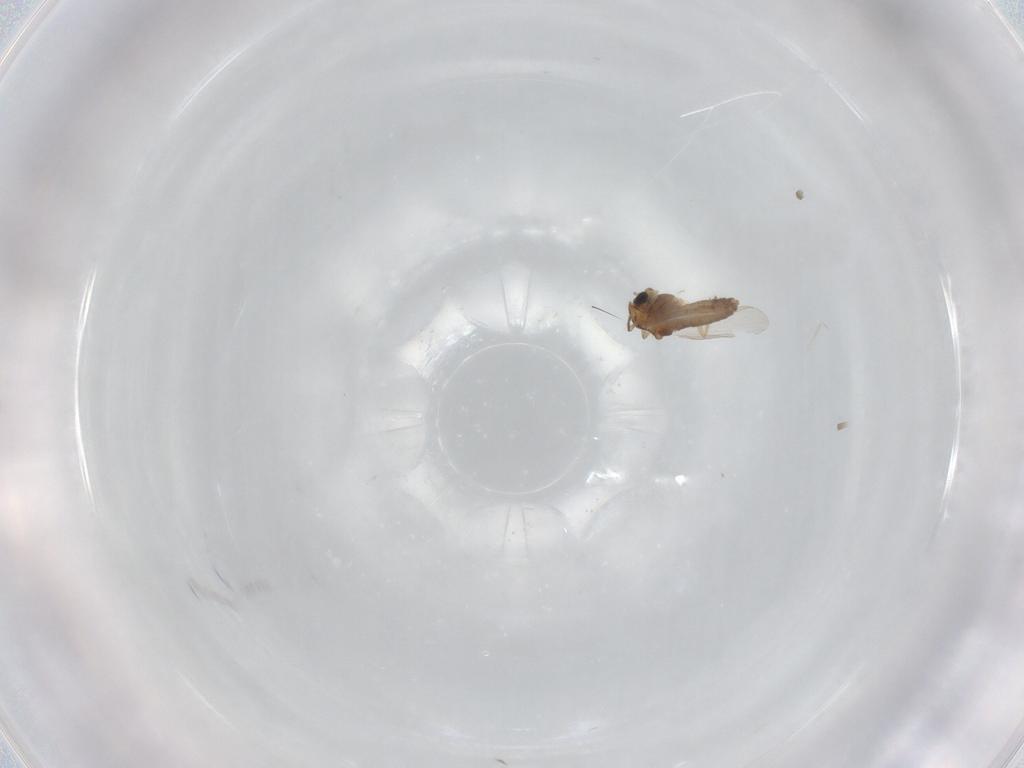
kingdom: Animalia
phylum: Arthropoda
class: Insecta
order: Diptera
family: Chironomidae
